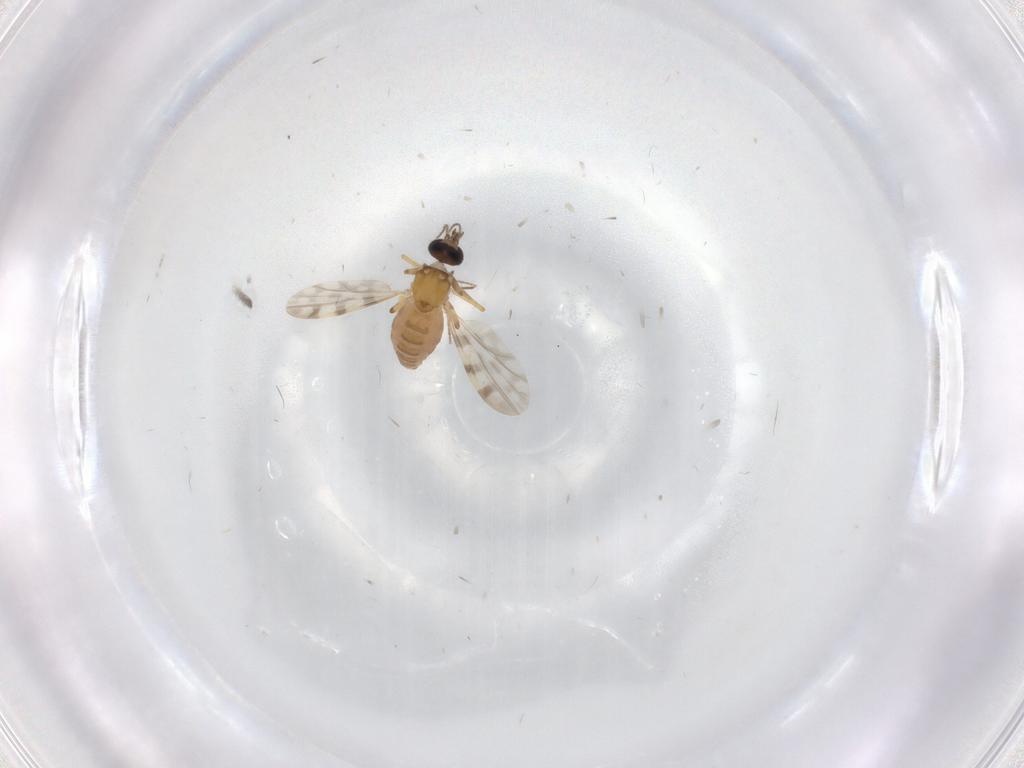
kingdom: Animalia
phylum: Arthropoda
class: Insecta
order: Diptera
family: Ceratopogonidae
